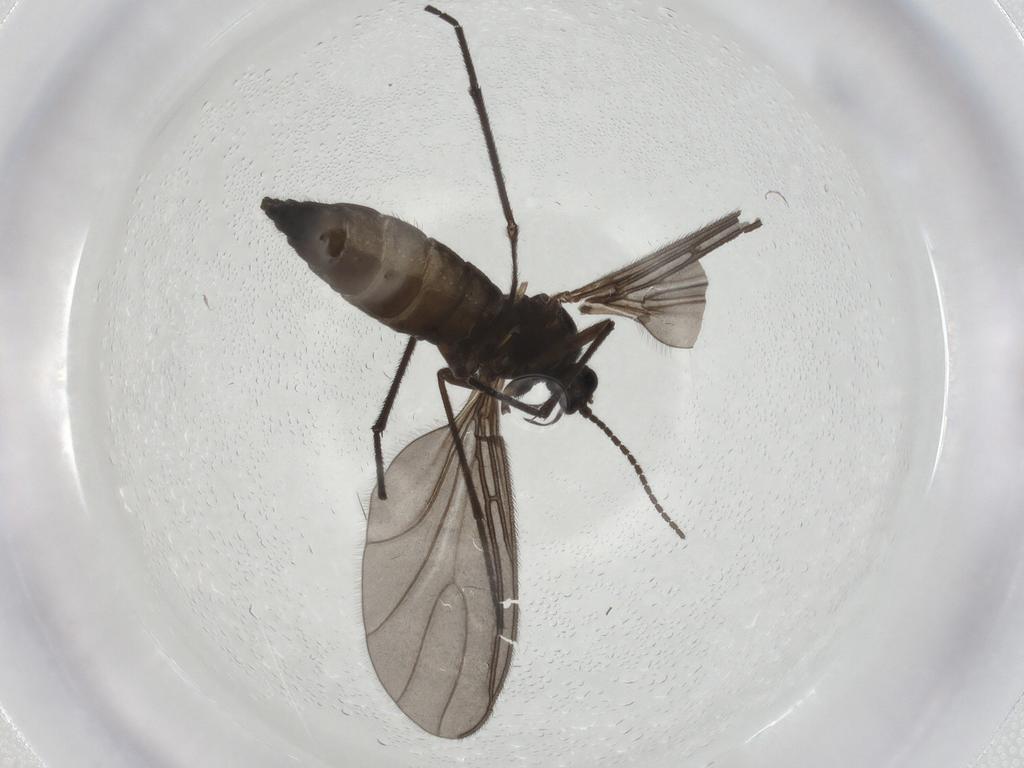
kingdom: Animalia
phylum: Arthropoda
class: Insecta
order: Diptera
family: Sciaridae
